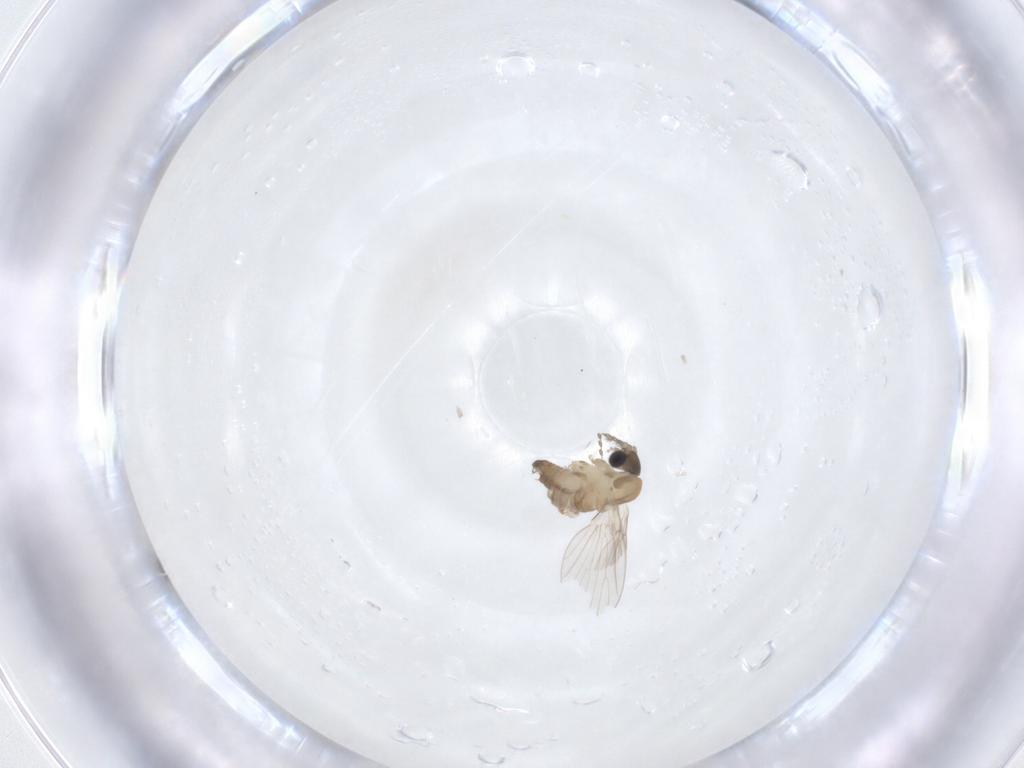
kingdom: Animalia
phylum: Arthropoda
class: Insecta
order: Diptera
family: Psychodidae
